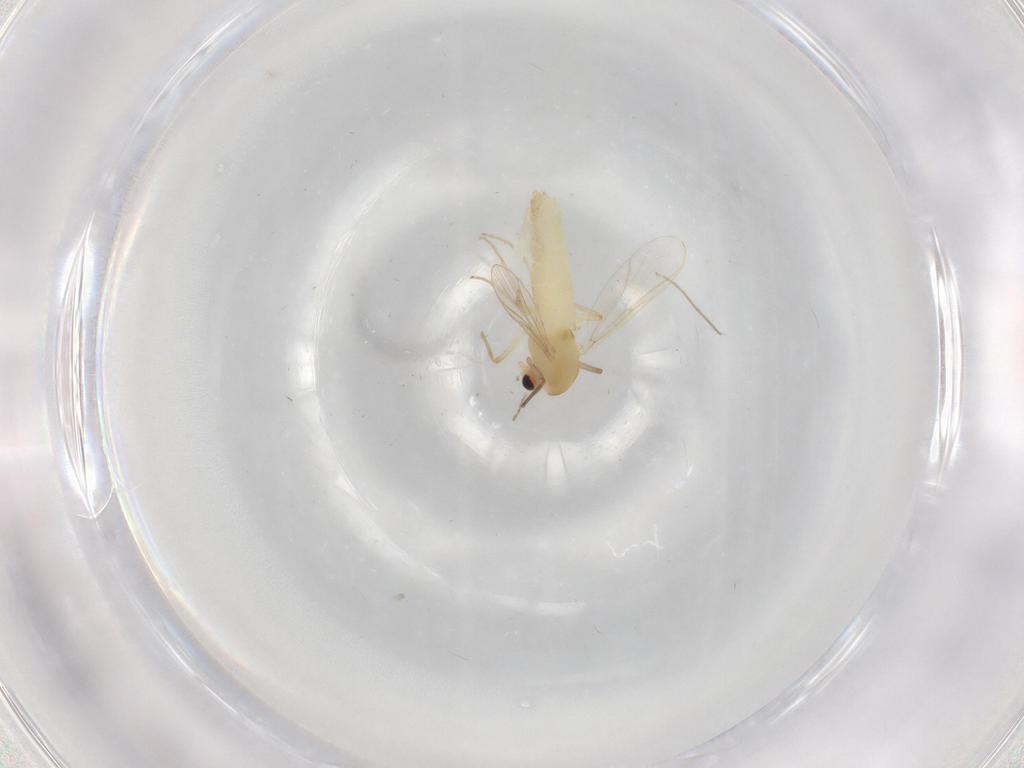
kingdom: Animalia
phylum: Arthropoda
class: Insecta
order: Diptera
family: Chironomidae
